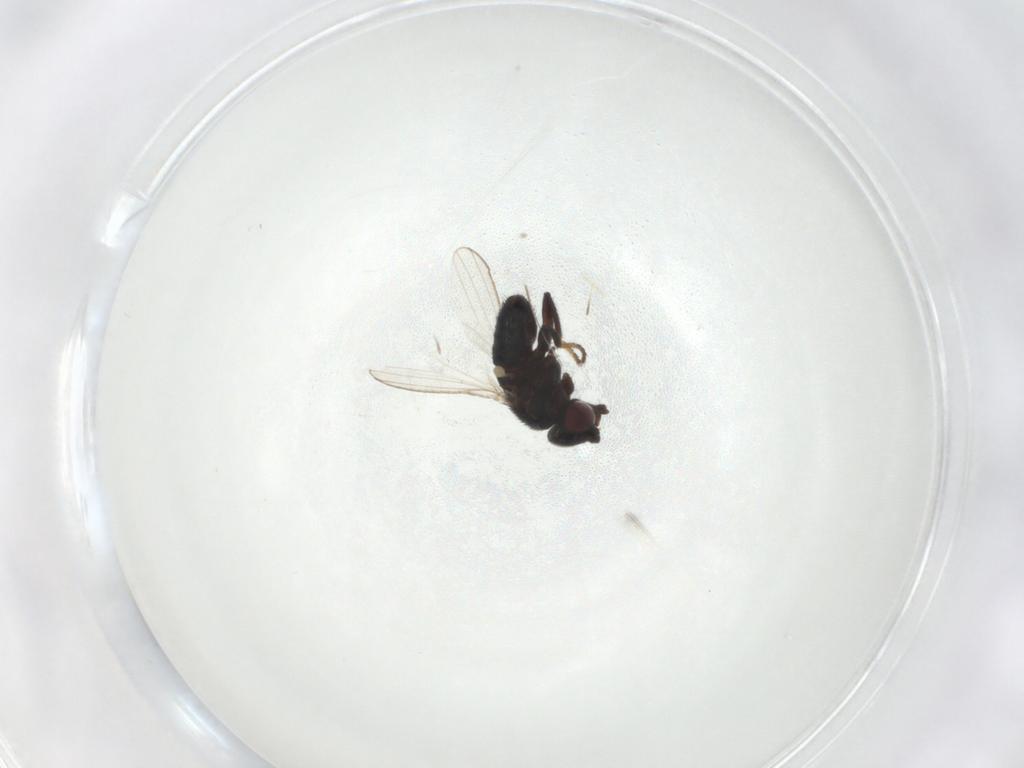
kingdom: Animalia
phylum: Arthropoda
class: Insecta
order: Diptera
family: Milichiidae
